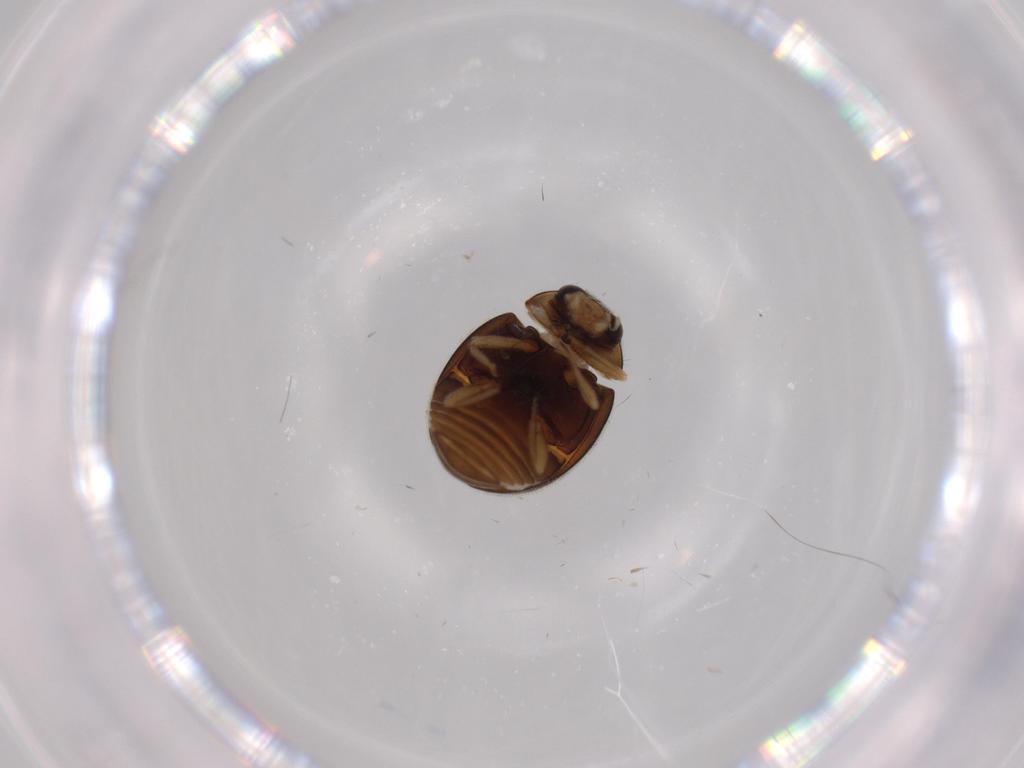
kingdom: Animalia
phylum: Arthropoda
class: Insecta
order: Coleoptera
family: Coccinellidae
